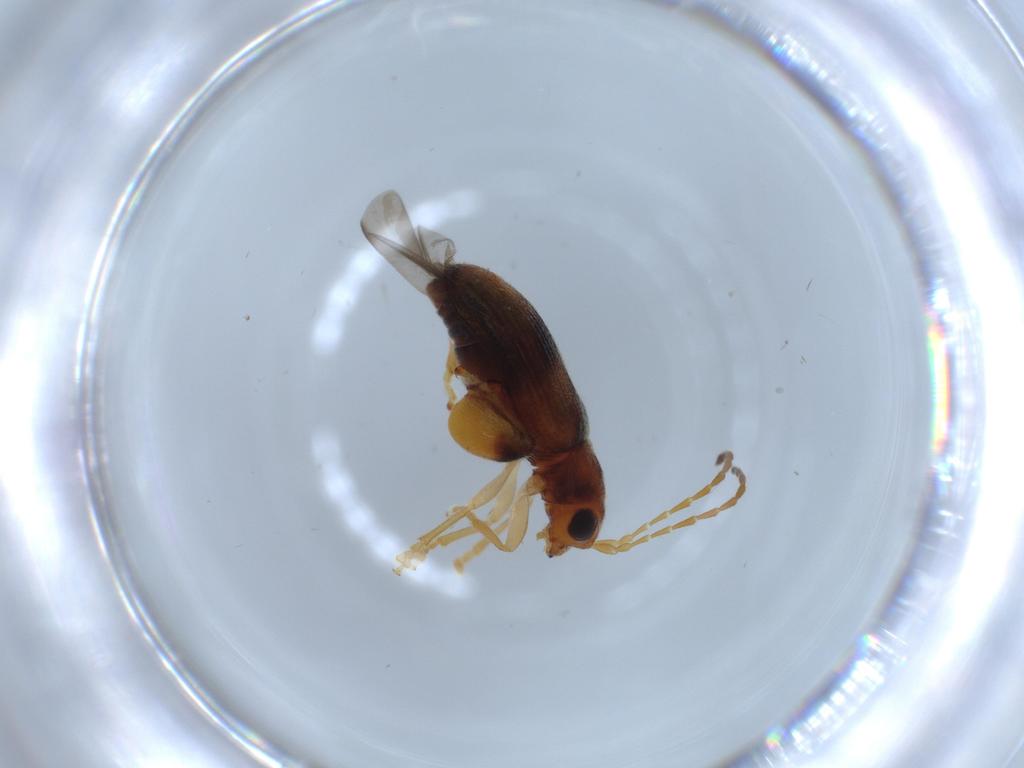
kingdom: Animalia
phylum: Arthropoda
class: Insecta
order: Coleoptera
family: Chrysomelidae
